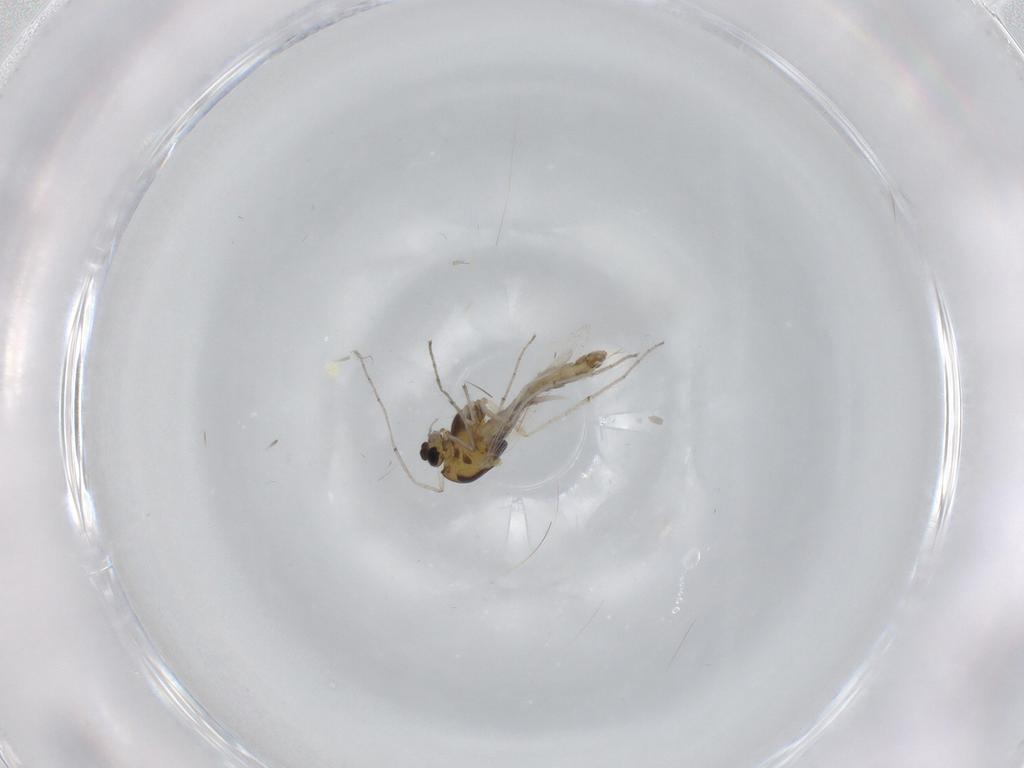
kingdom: Animalia
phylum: Arthropoda
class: Insecta
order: Diptera
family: Chironomidae
